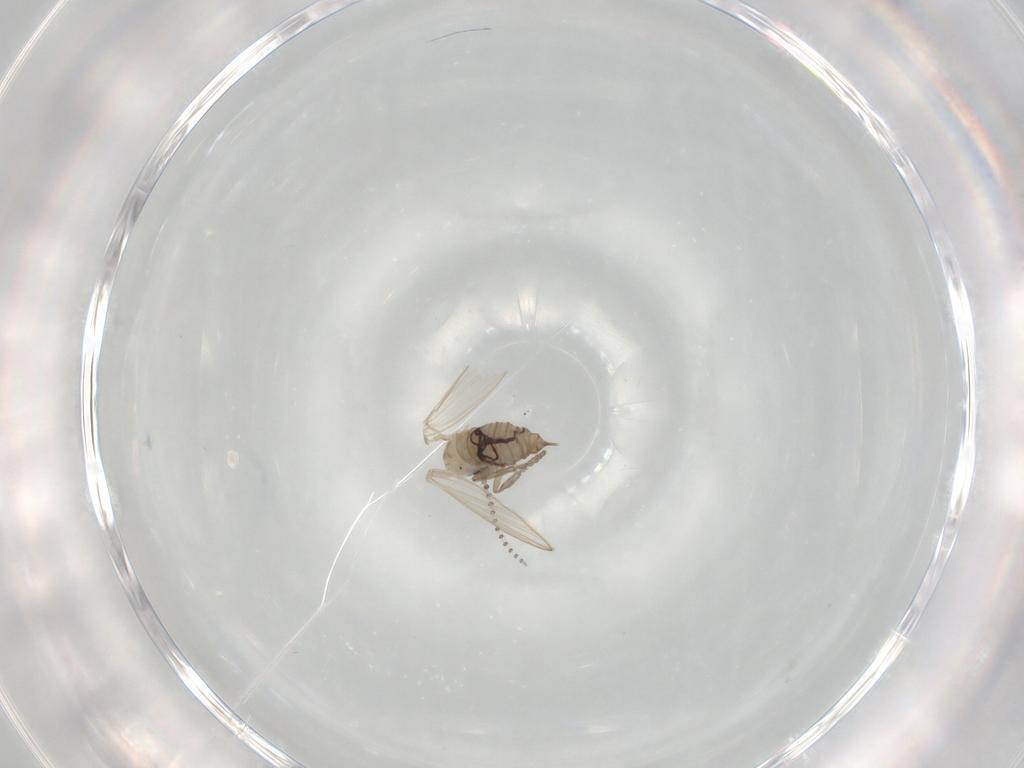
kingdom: Animalia
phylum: Arthropoda
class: Insecta
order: Diptera
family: Psychodidae
